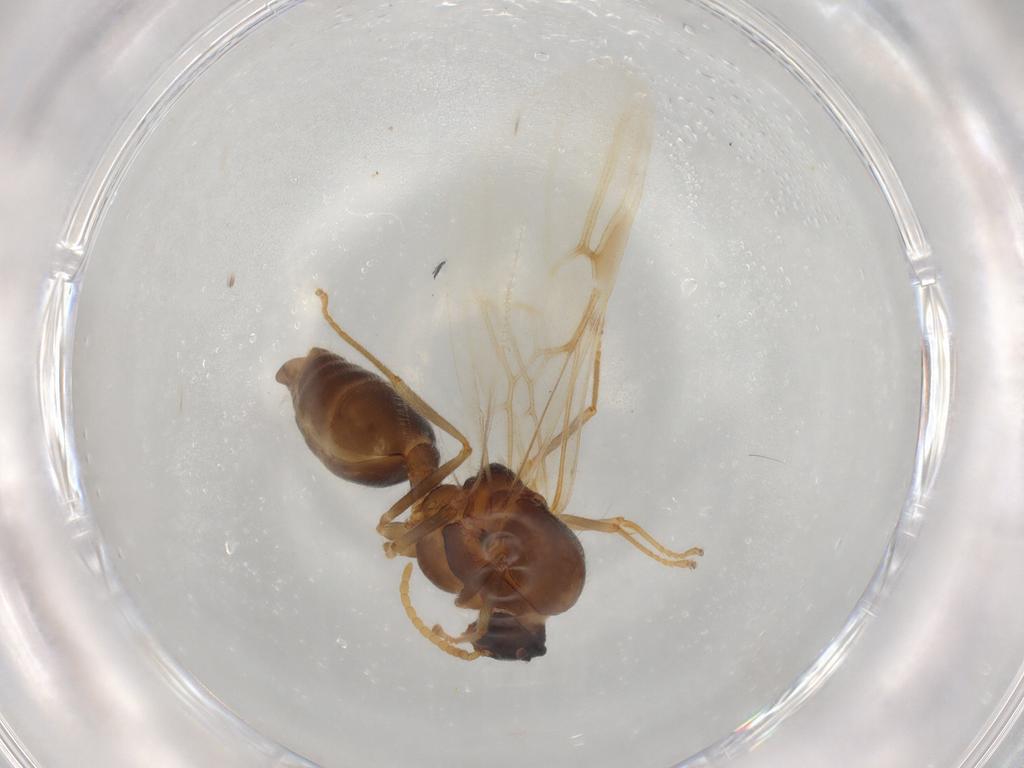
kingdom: Animalia
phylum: Arthropoda
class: Insecta
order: Hymenoptera
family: Formicidae
